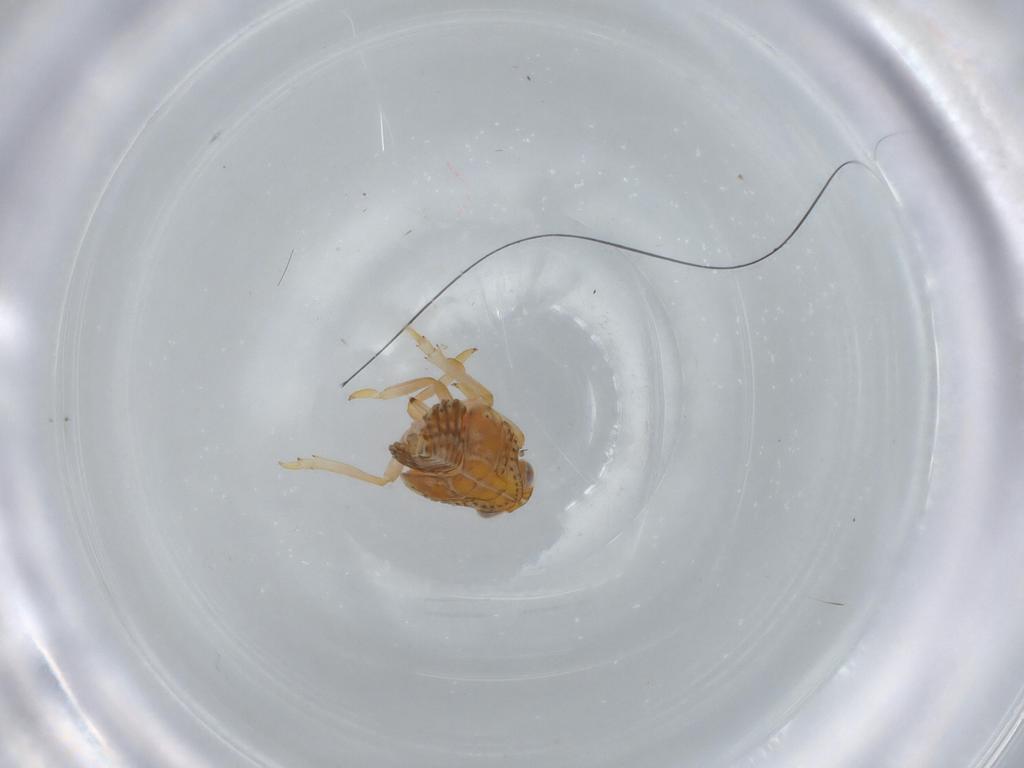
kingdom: Animalia
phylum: Arthropoda
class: Insecta
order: Hemiptera
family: Issidae
